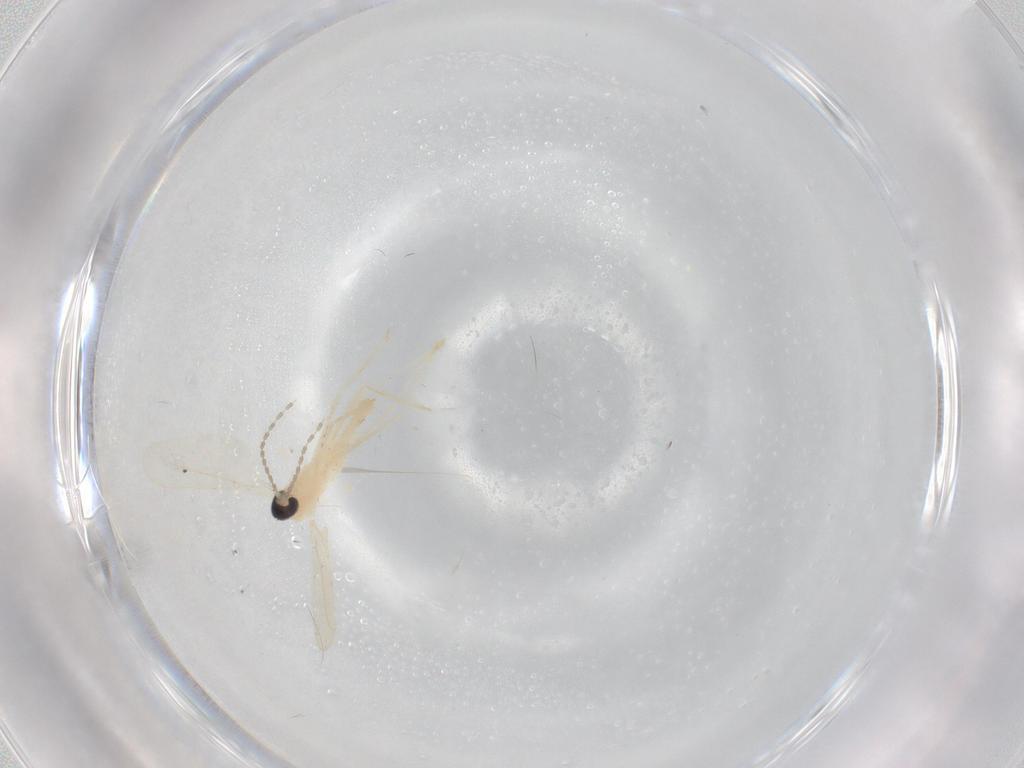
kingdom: Animalia
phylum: Arthropoda
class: Insecta
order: Diptera
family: Cecidomyiidae
